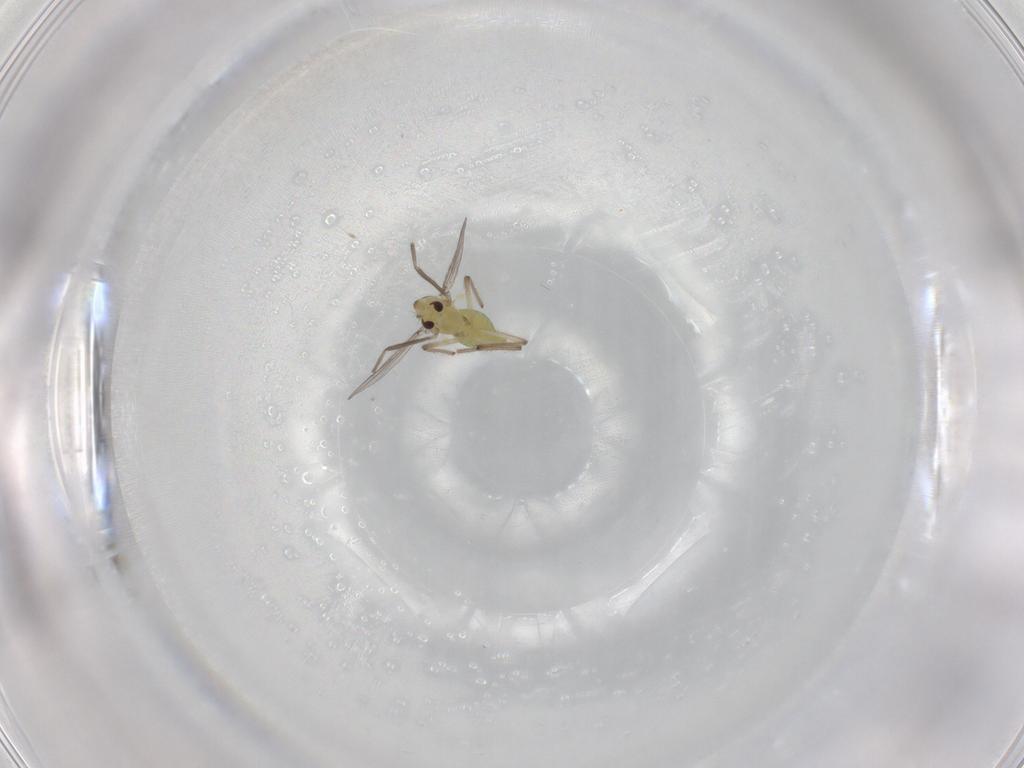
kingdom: Animalia
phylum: Arthropoda
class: Insecta
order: Diptera
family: Chironomidae
